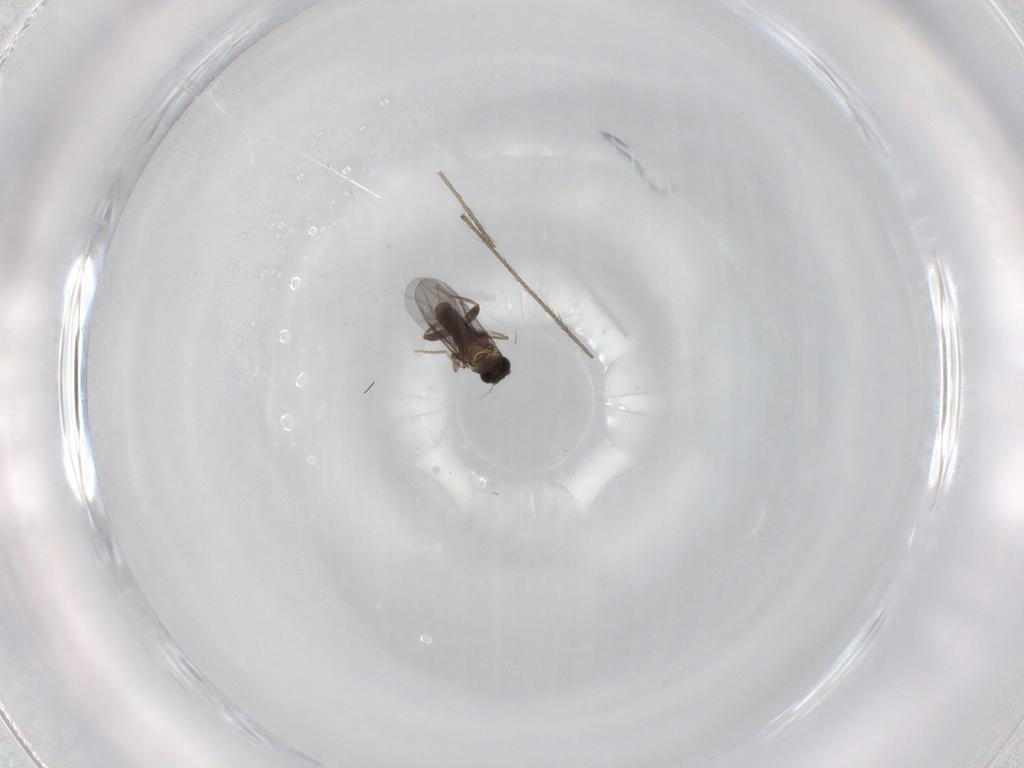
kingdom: Animalia
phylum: Arthropoda
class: Insecta
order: Diptera
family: Limoniidae
